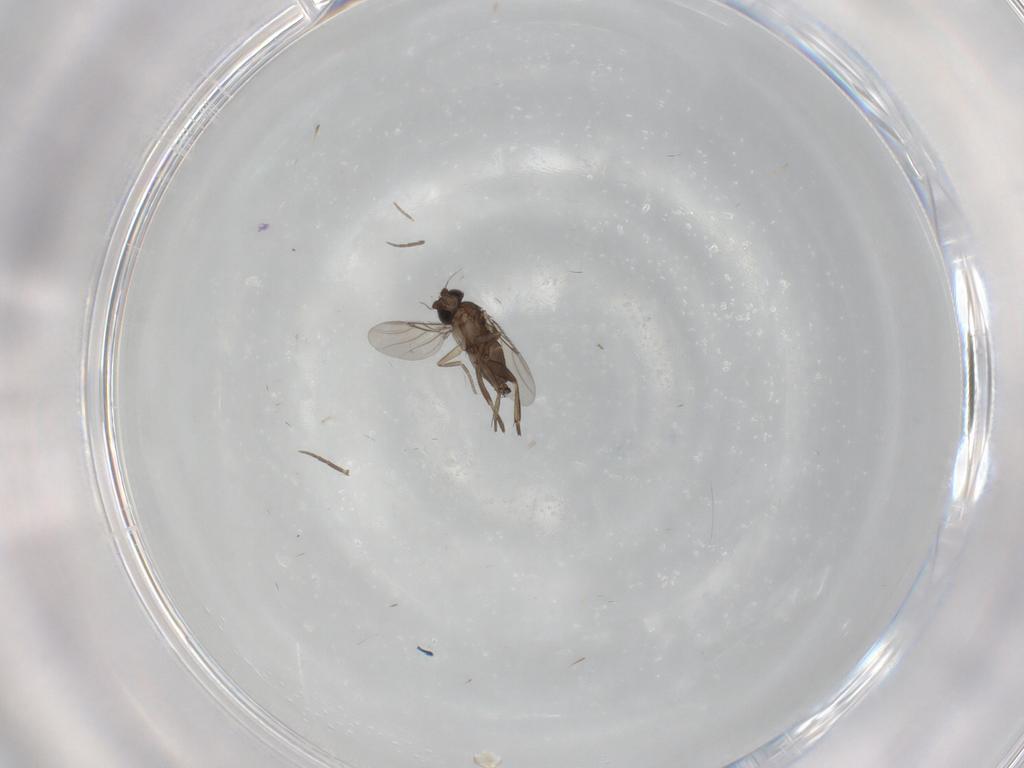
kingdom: Animalia
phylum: Arthropoda
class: Insecta
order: Diptera
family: Phoridae
